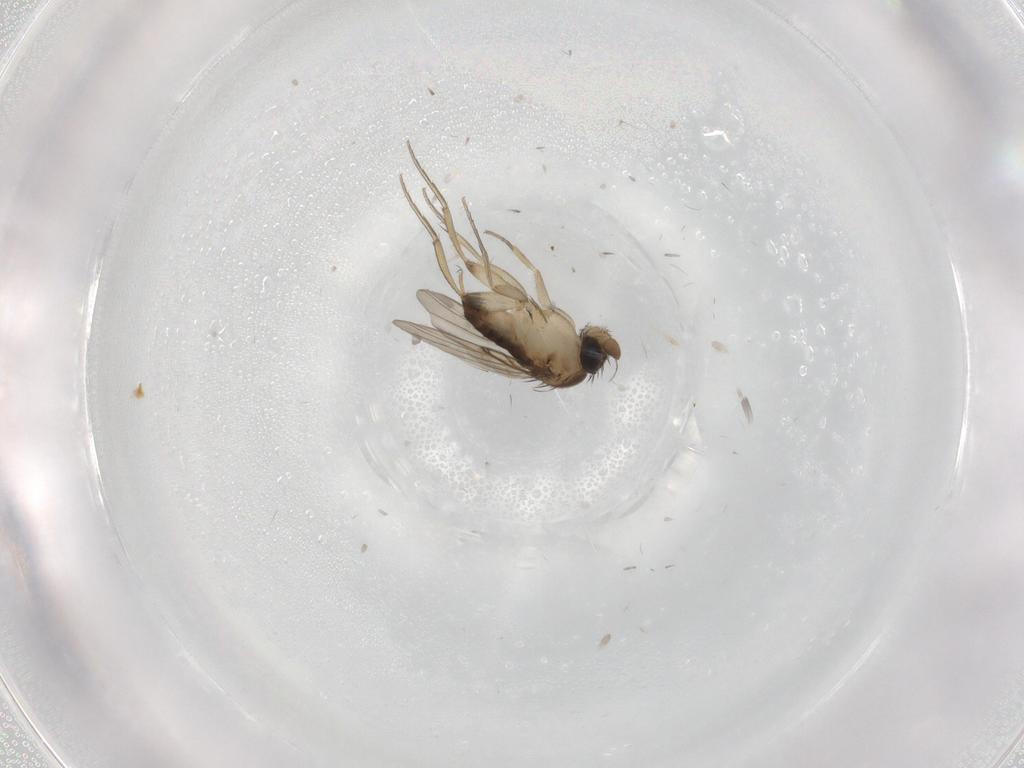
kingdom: Animalia
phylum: Arthropoda
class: Insecta
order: Diptera
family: Phoridae
